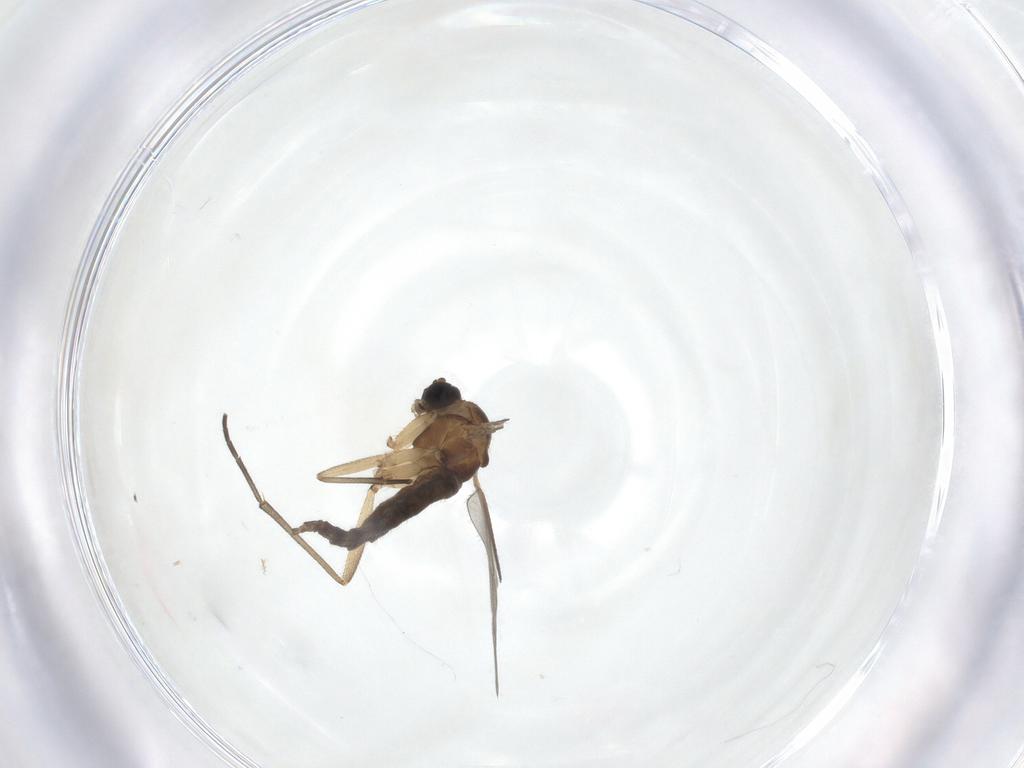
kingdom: Animalia
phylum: Arthropoda
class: Insecta
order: Diptera
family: Sciaridae
